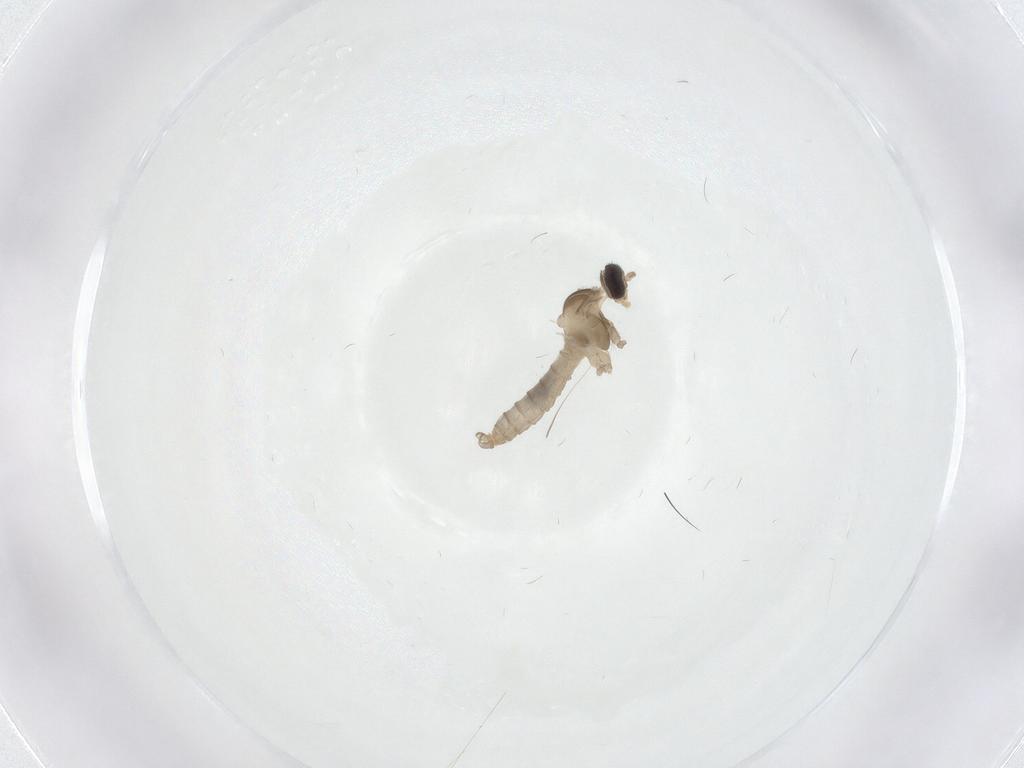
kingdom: Animalia
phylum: Arthropoda
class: Insecta
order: Diptera
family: Cecidomyiidae
